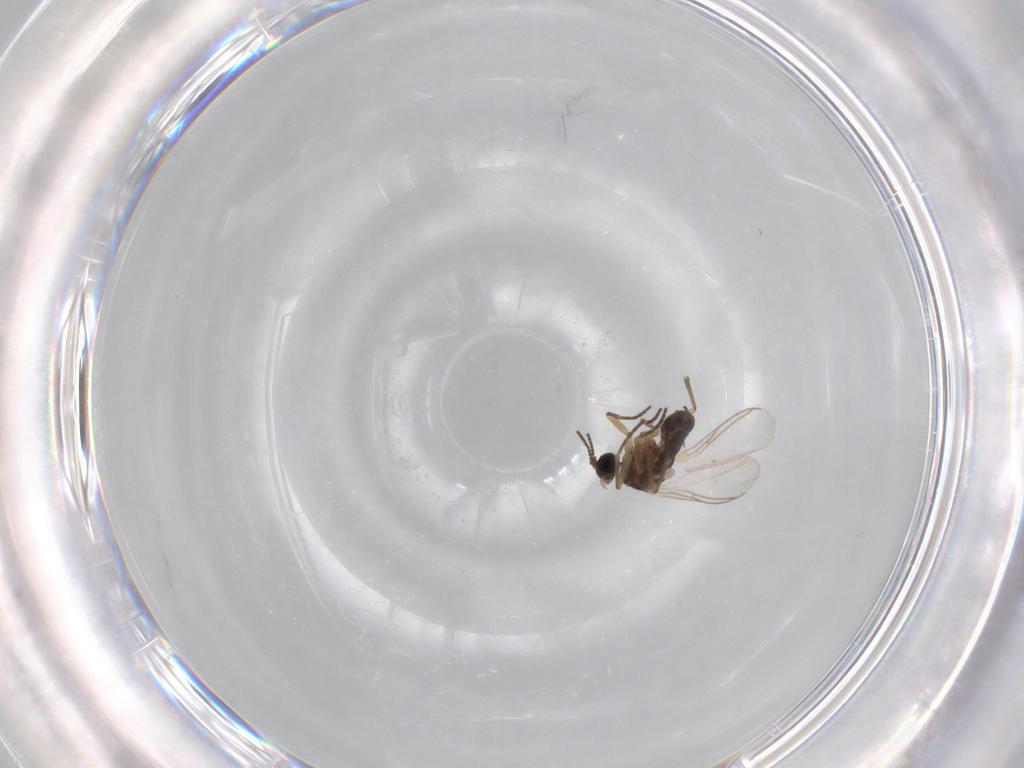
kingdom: Animalia
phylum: Arthropoda
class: Insecta
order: Diptera
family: Sciaridae
